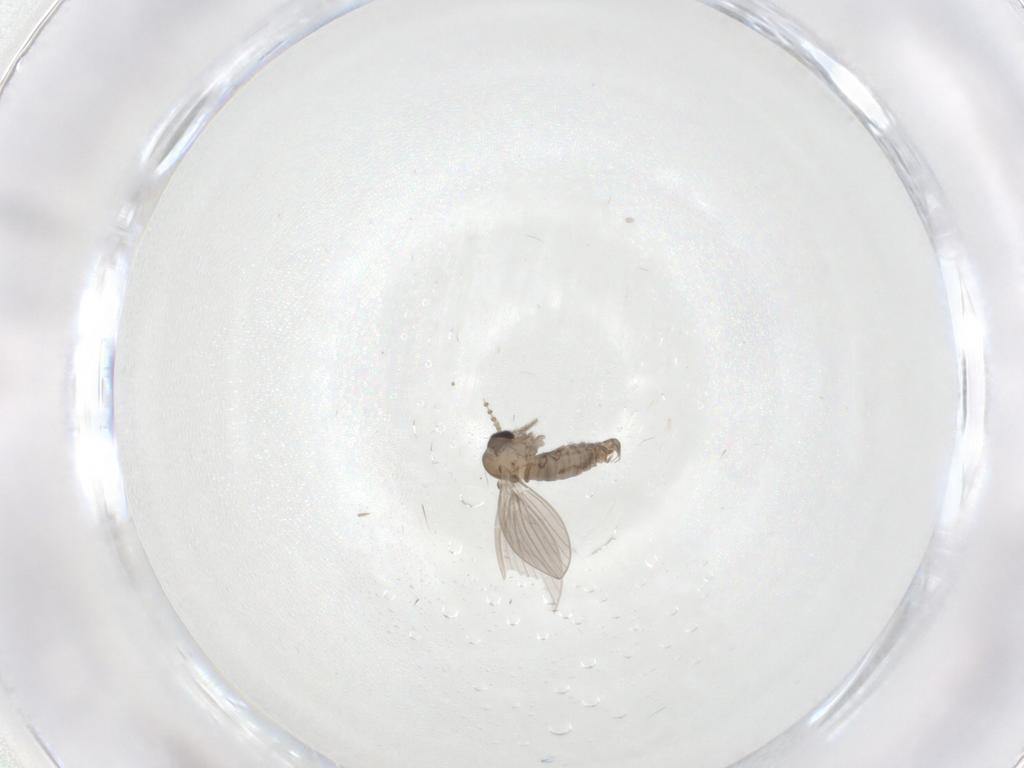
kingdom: Animalia
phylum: Arthropoda
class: Insecta
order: Diptera
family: Psychodidae
